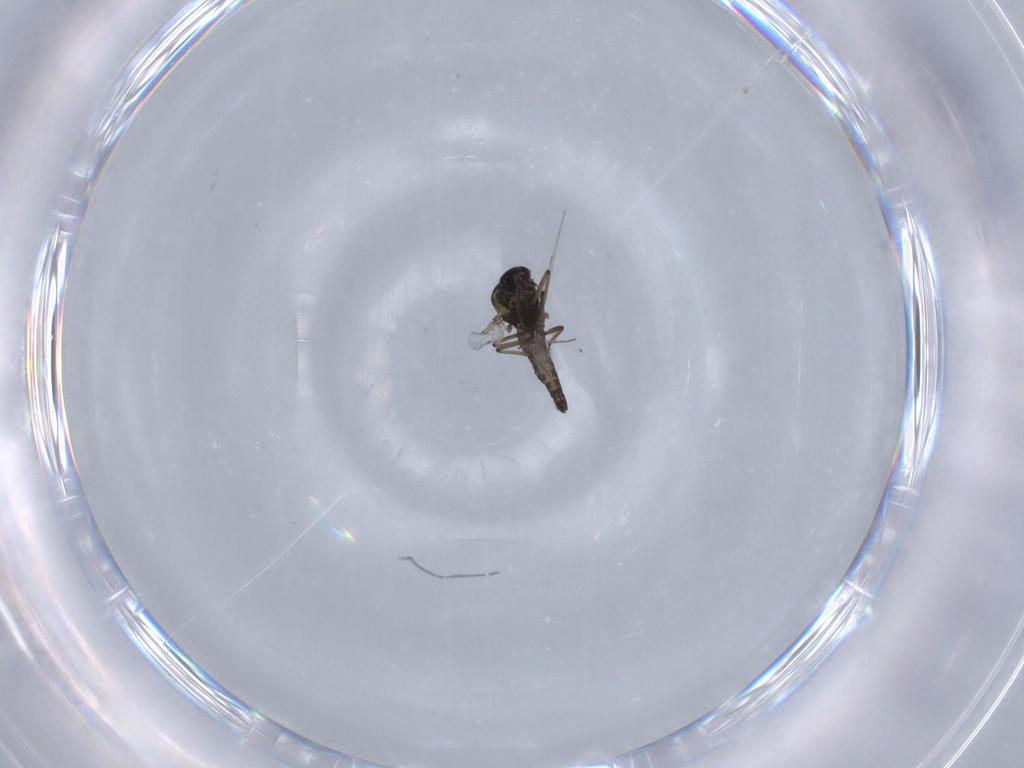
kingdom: Animalia
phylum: Arthropoda
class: Insecta
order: Diptera
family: Ceratopogonidae
